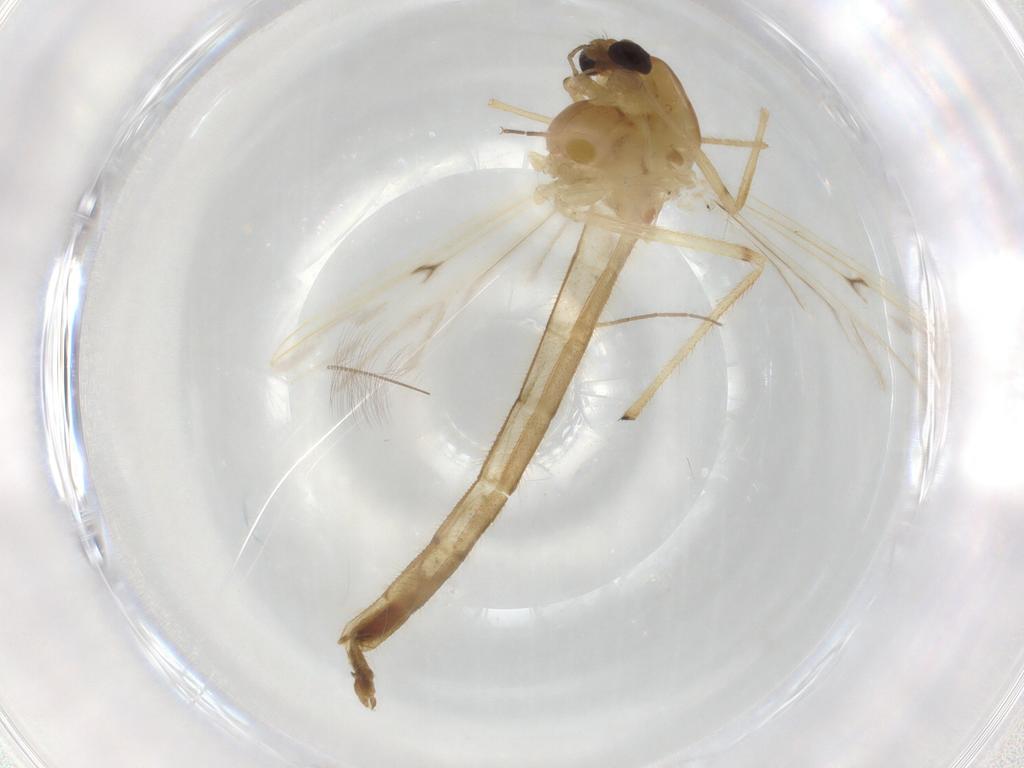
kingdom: Animalia
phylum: Arthropoda
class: Insecta
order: Diptera
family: Chironomidae
